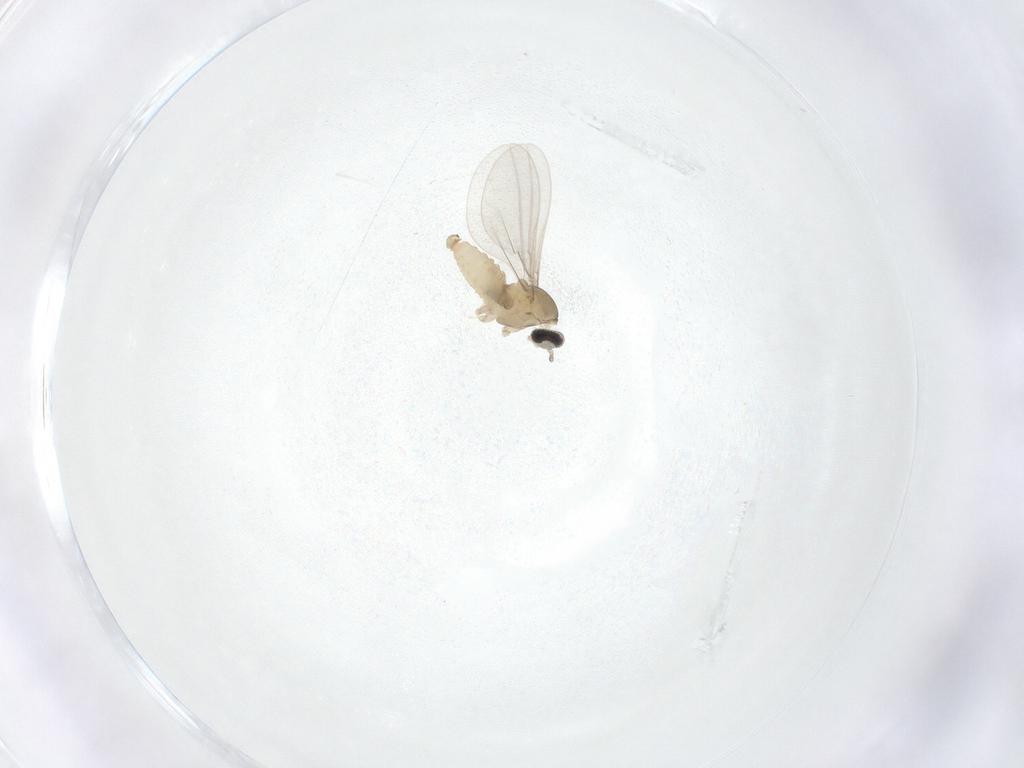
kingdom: Animalia
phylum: Arthropoda
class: Insecta
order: Diptera
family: Chironomidae
